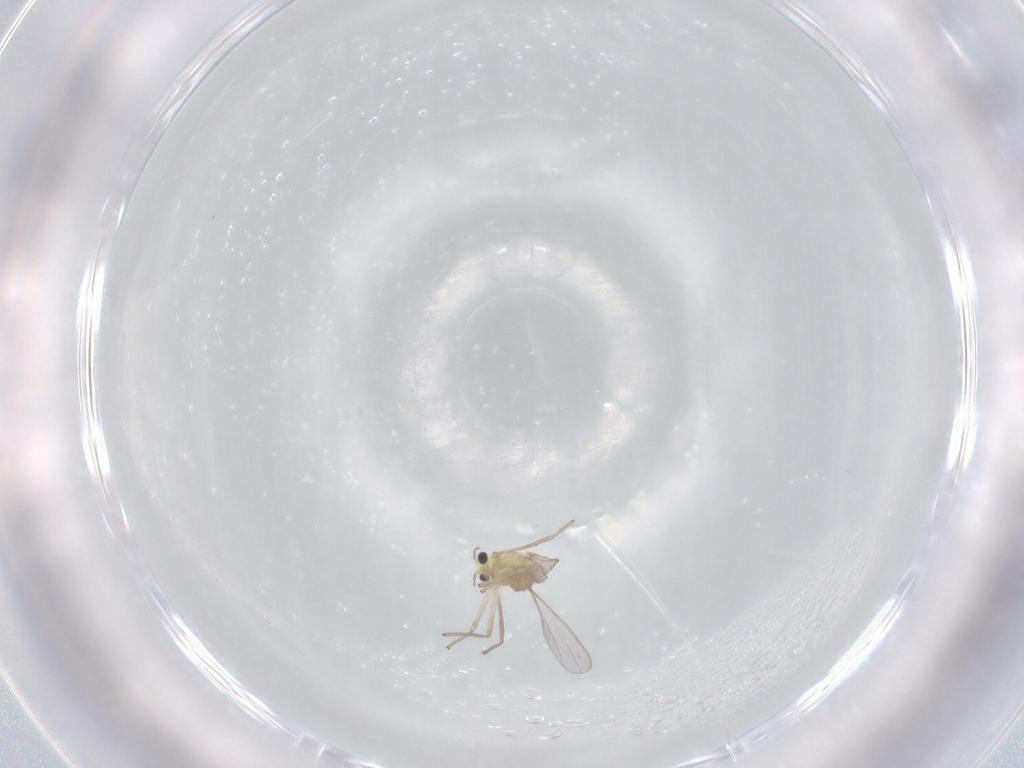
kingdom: Animalia
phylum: Arthropoda
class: Insecta
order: Diptera
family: Chironomidae
